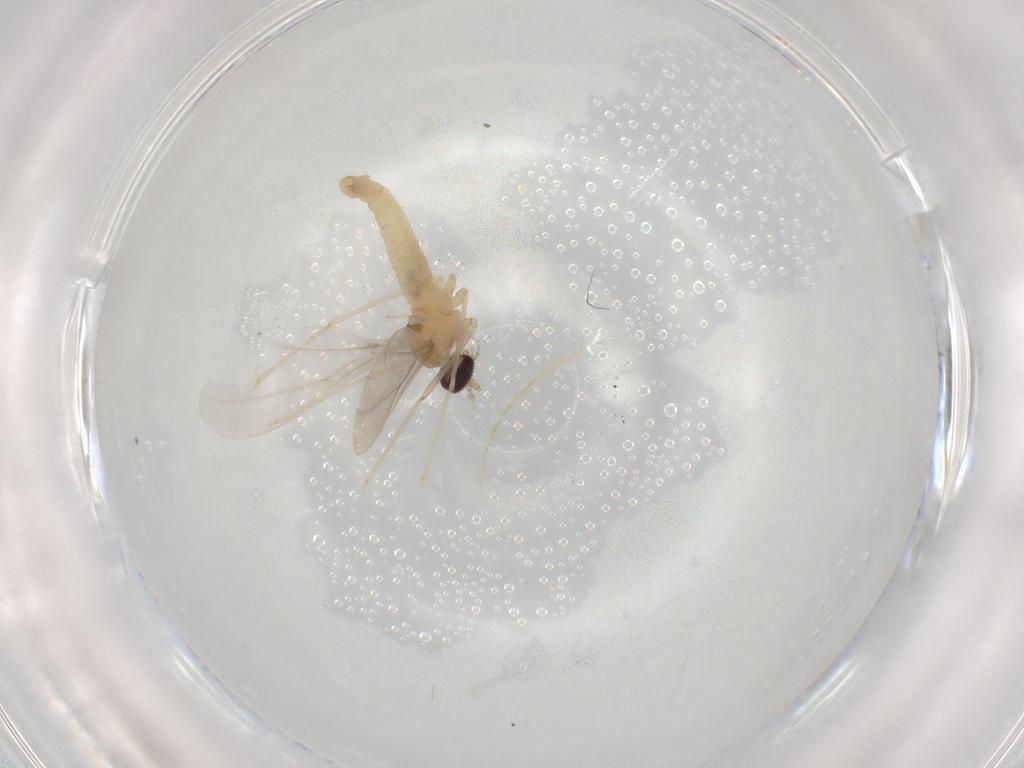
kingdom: Animalia
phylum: Arthropoda
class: Insecta
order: Diptera
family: Cecidomyiidae
